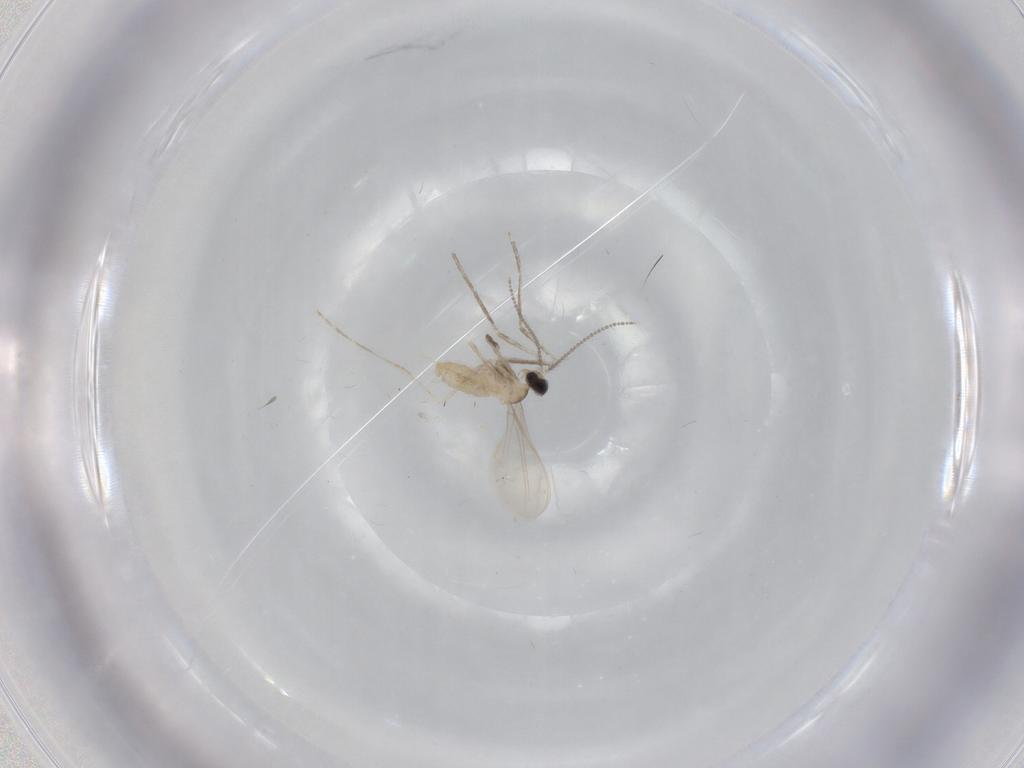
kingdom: Animalia
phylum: Arthropoda
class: Insecta
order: Diptera
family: Cecidomyiidae
